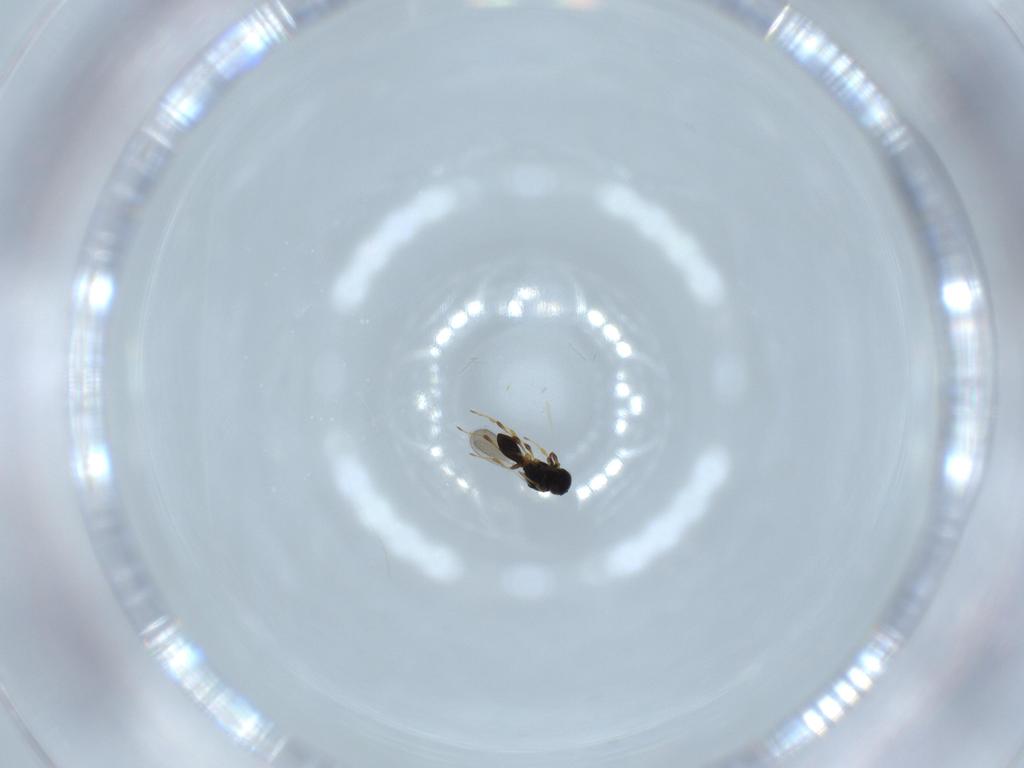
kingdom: Animalia
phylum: Arthropoda
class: Insecta
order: Hymenoptera
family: Platygastridae
